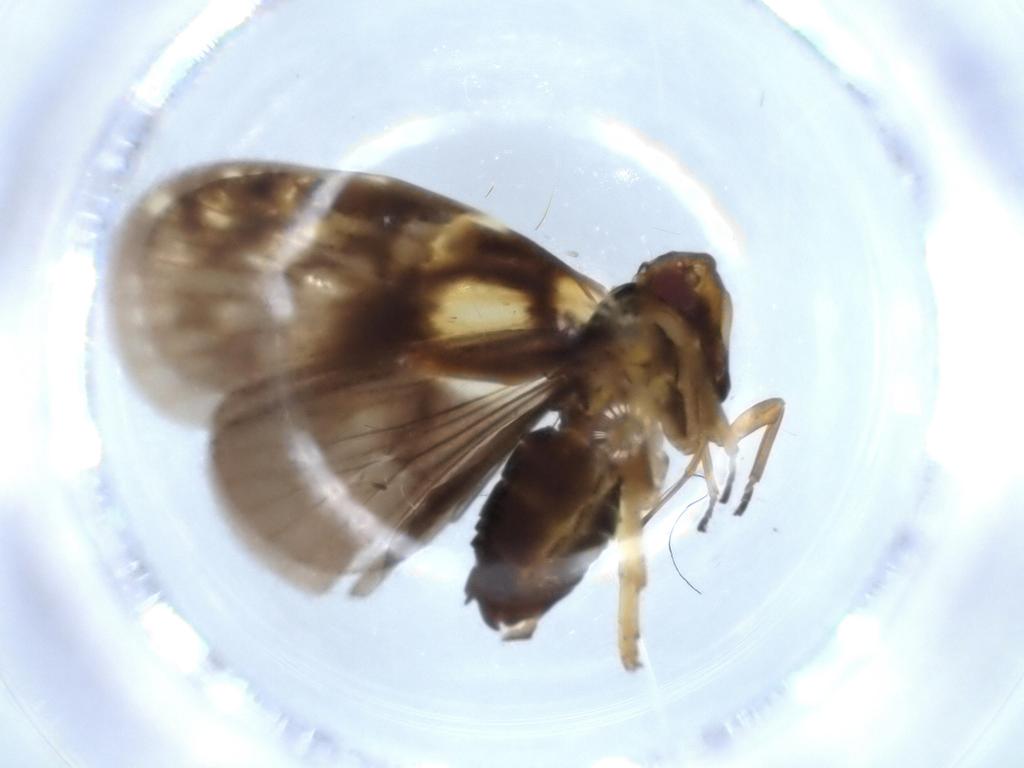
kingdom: Animalia
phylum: Arthropoda
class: Insecta
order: Hemiptera
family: Cixiidae
